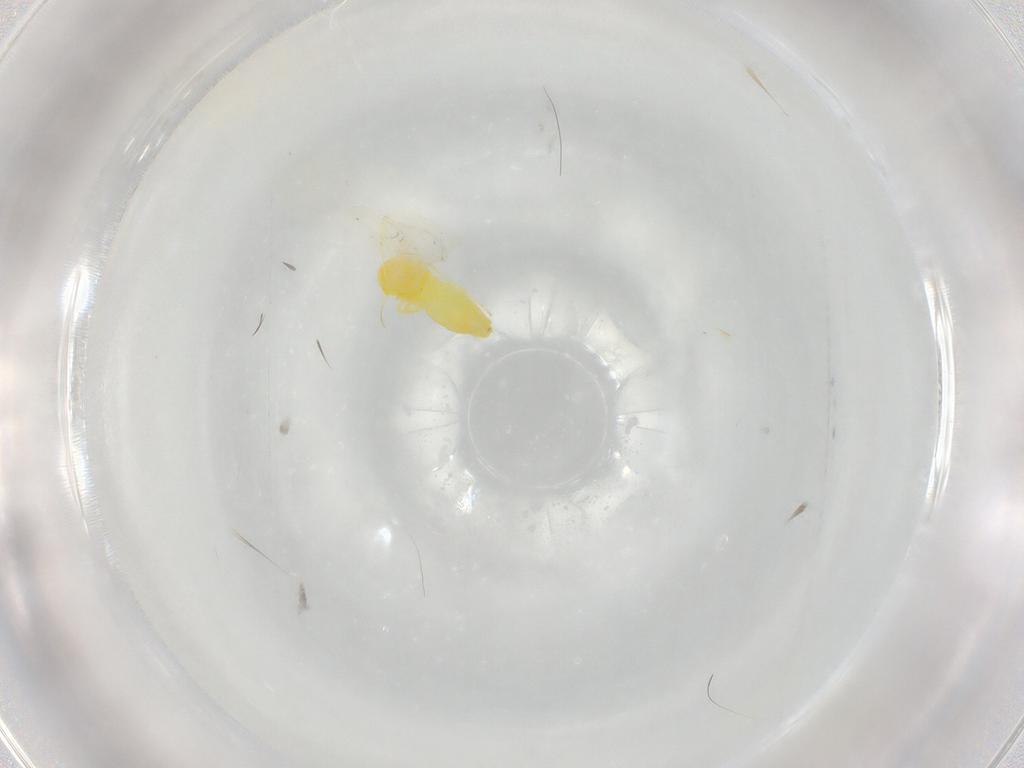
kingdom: Animalia
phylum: Arthropoda
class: Insecta
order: Hemiptera
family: Aleyrodidae
